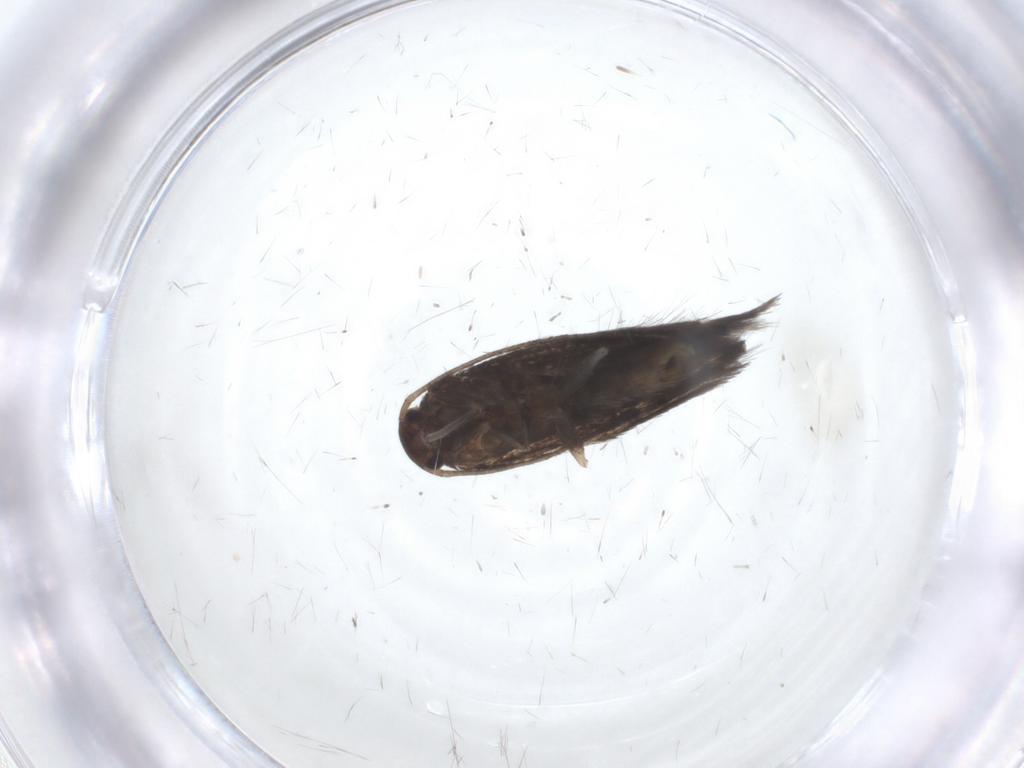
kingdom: Animalia
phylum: Arthropoda
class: Insecta
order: Lepidoptera
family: Elachistidae
